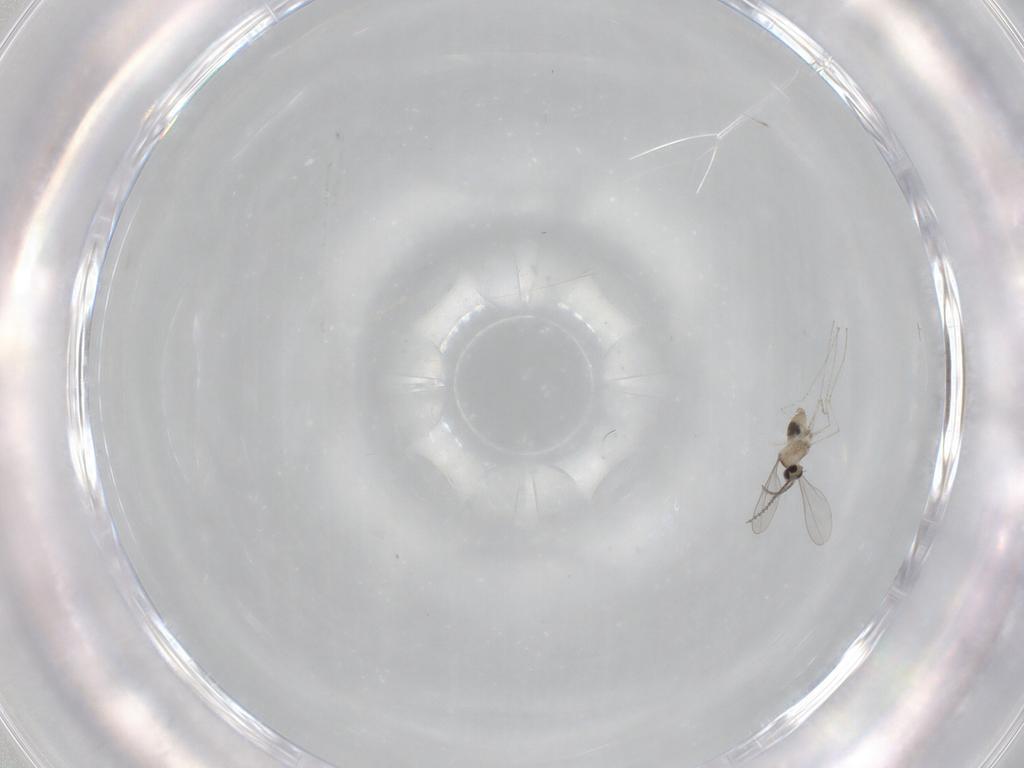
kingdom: Animalia
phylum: Arthropoda
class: Insecta
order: Diptera
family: Cecidomyiidae
